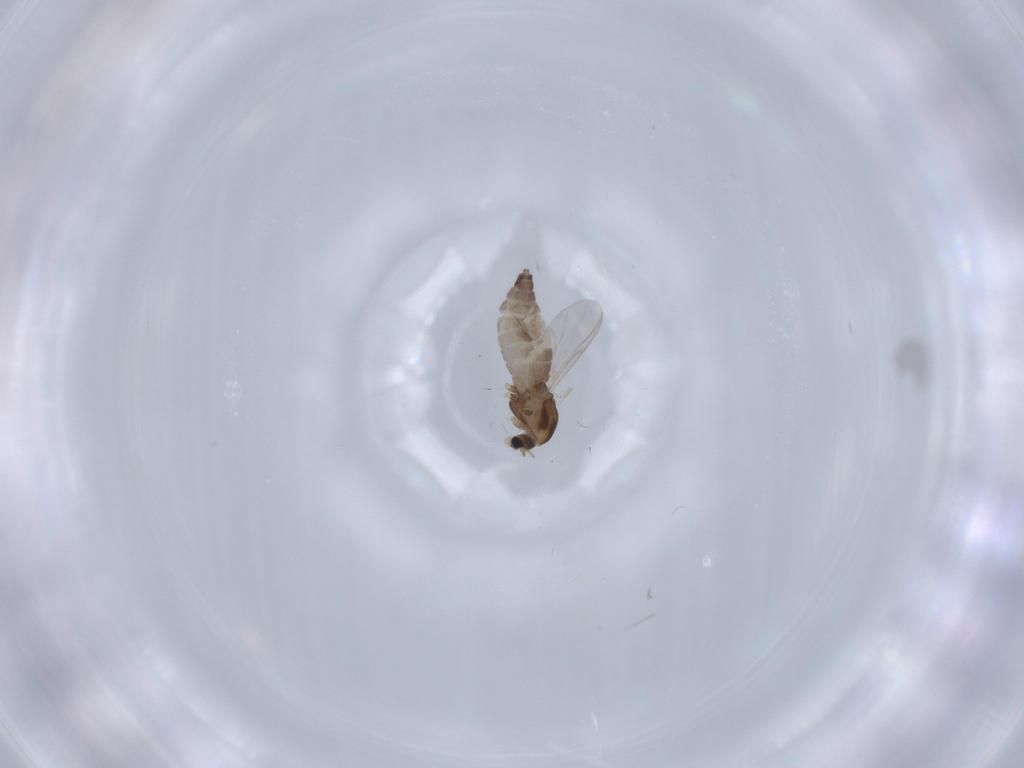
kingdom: Animalia
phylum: Arthropoda
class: Insecta
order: Diptera
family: Chironomidae
